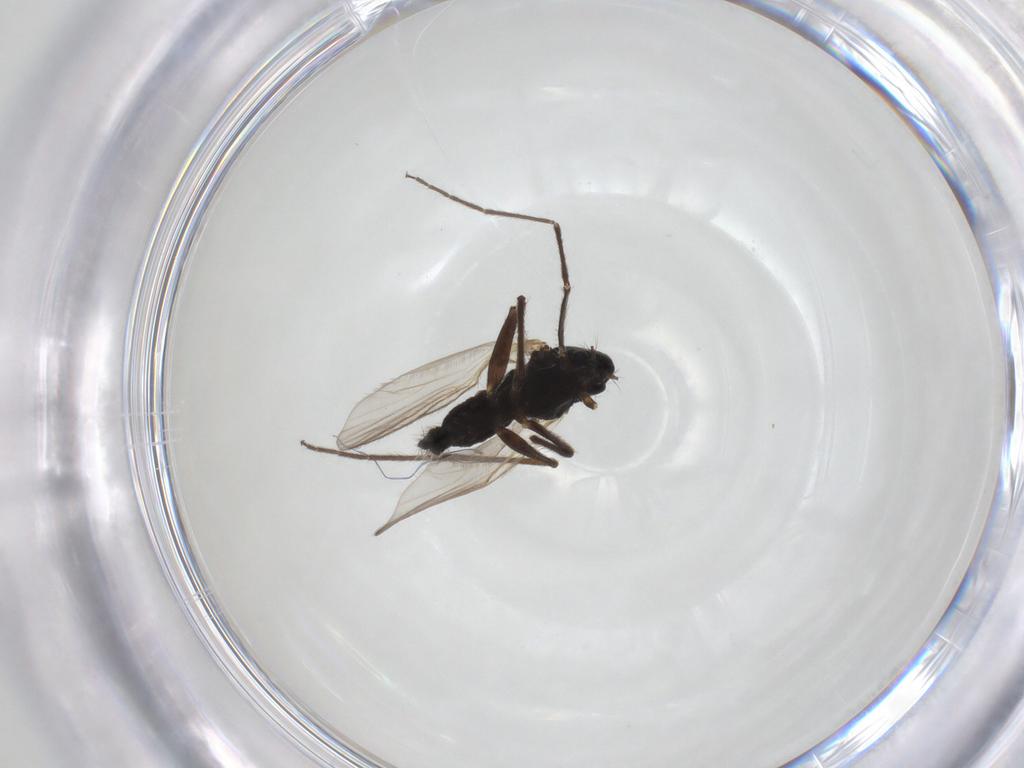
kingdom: Animalia
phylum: Arthropoda
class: Insecta
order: Diptera
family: Chironomidae
